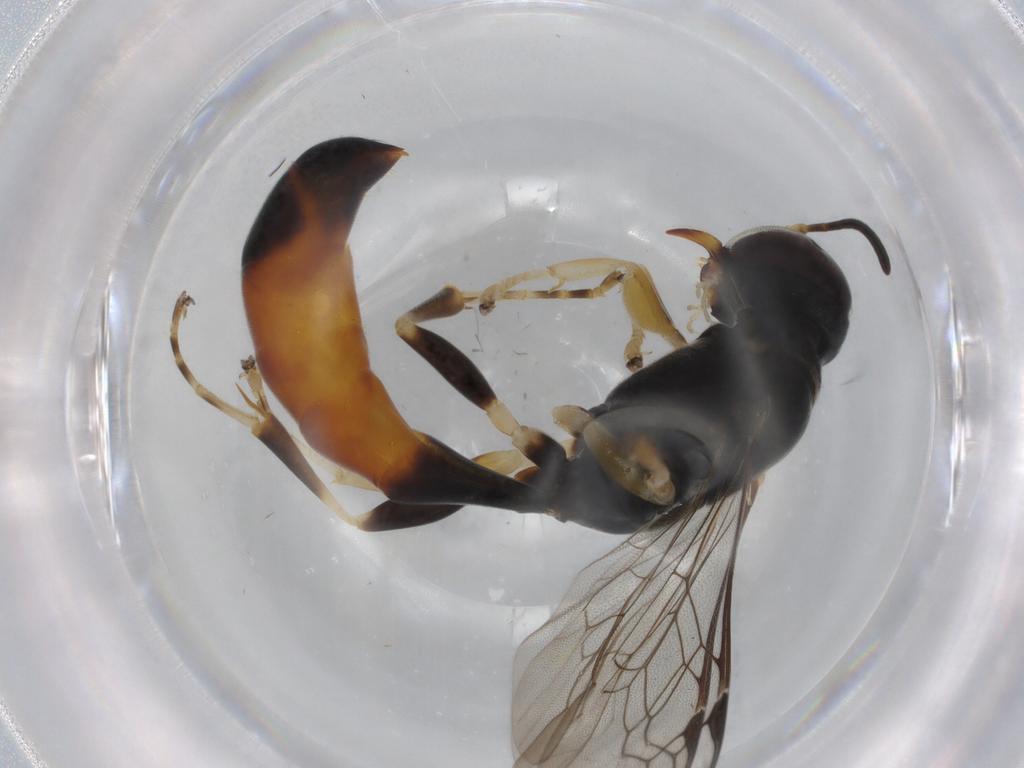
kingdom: Animalia
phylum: Arthropoda
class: Insecta
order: Hymenoptera
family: Crabronidae
